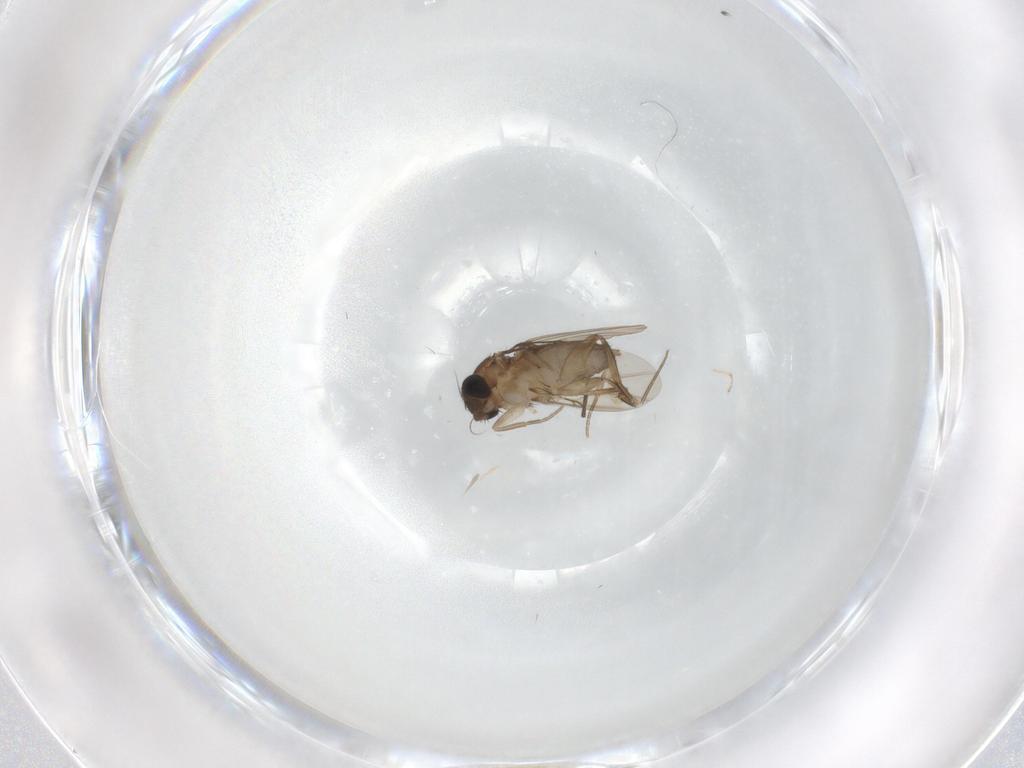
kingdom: Animalia
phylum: Arthropoda
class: Insecta
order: Diptera
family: Phoridae
